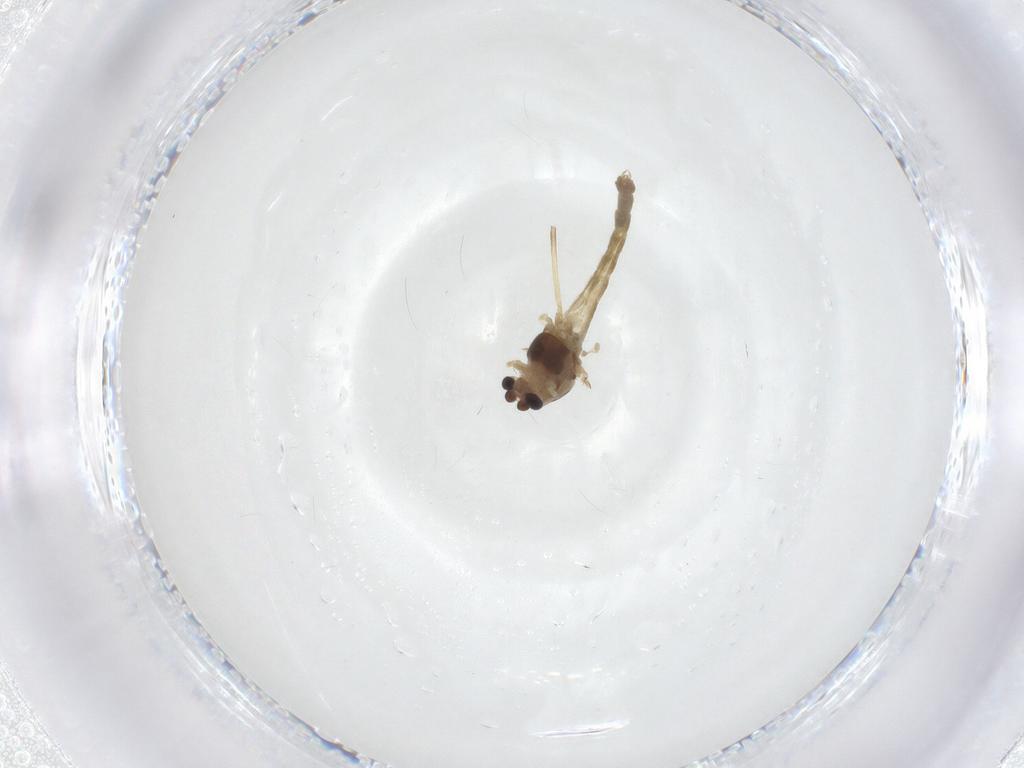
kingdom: Animalia
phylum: Arthropoda
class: Insecta
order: Diptera
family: Chironomidae
